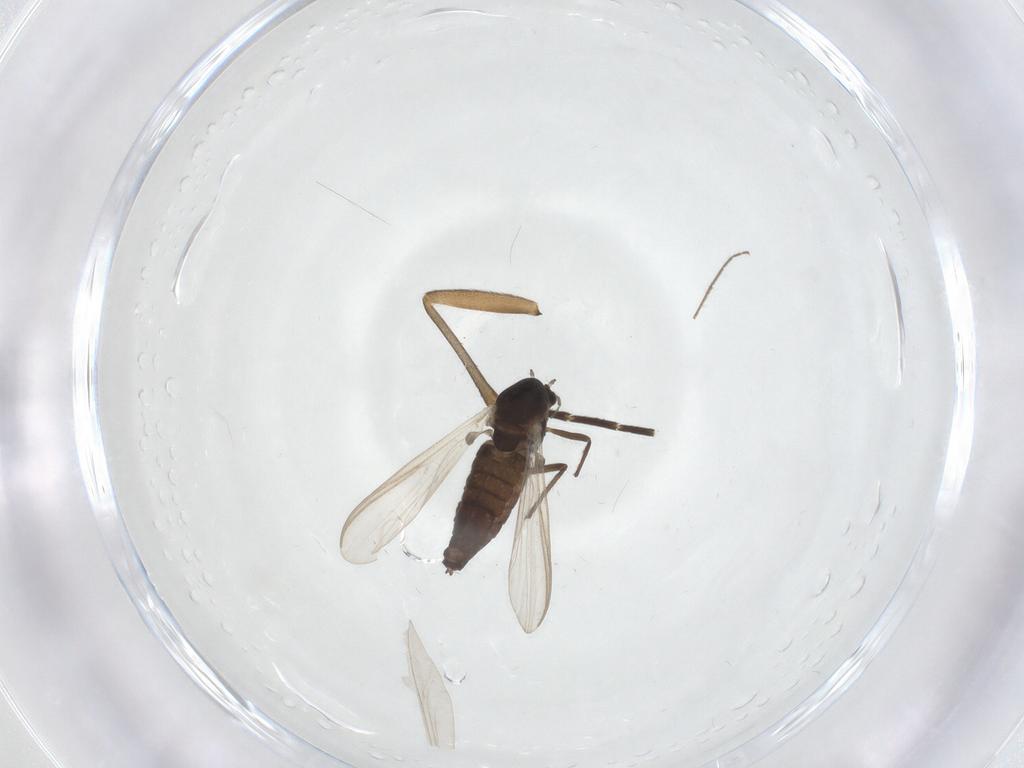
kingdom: Animalia
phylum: Arthropoda
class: Insecta
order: Diptera
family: Chironomidae
